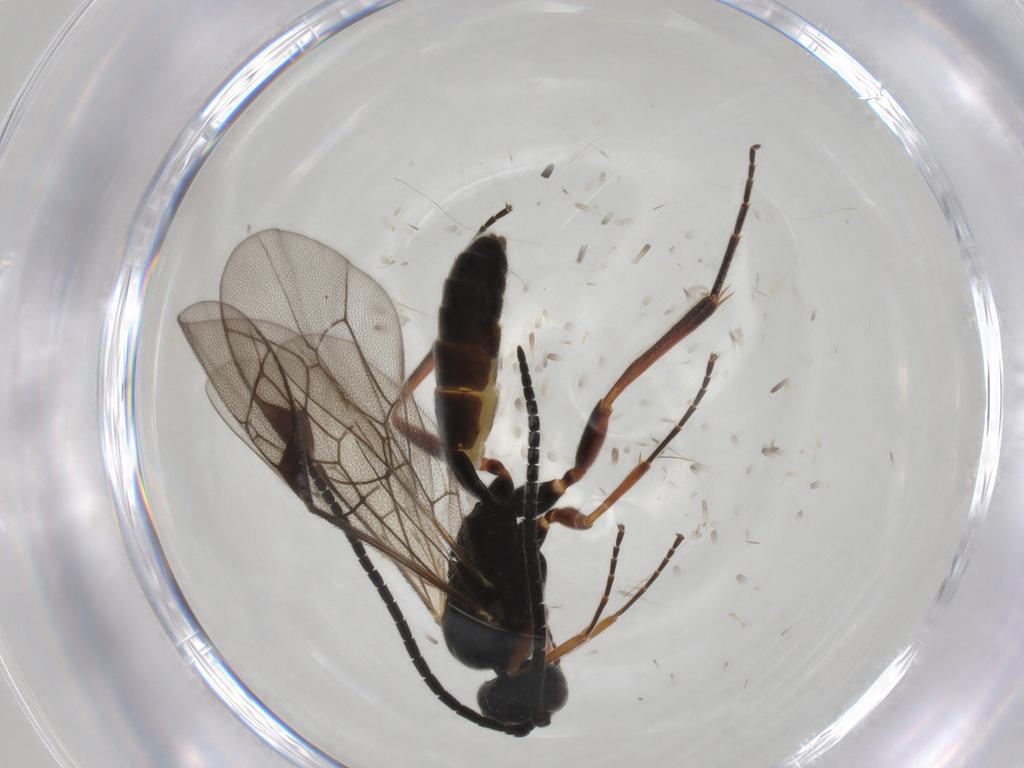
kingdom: Animalia
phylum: Arthropoda
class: Insecta
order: Hymenoptera
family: Ichneumonidae
